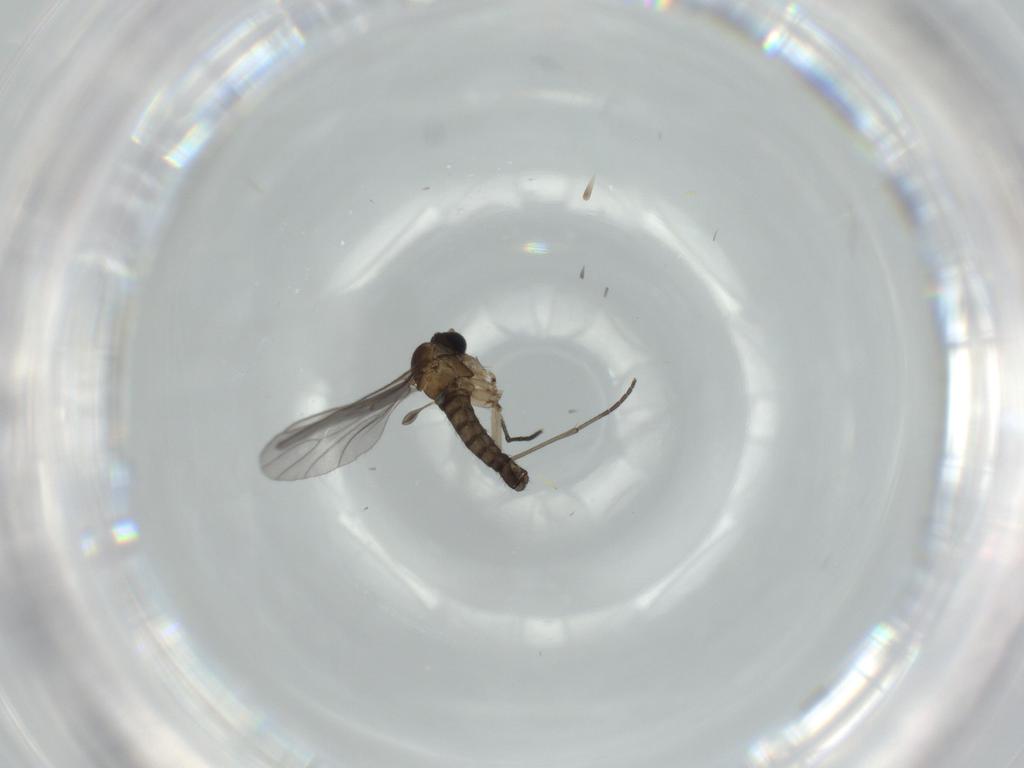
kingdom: Animalia
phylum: Arthropoda
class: Insecta
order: Diptera
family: Sciaridae
